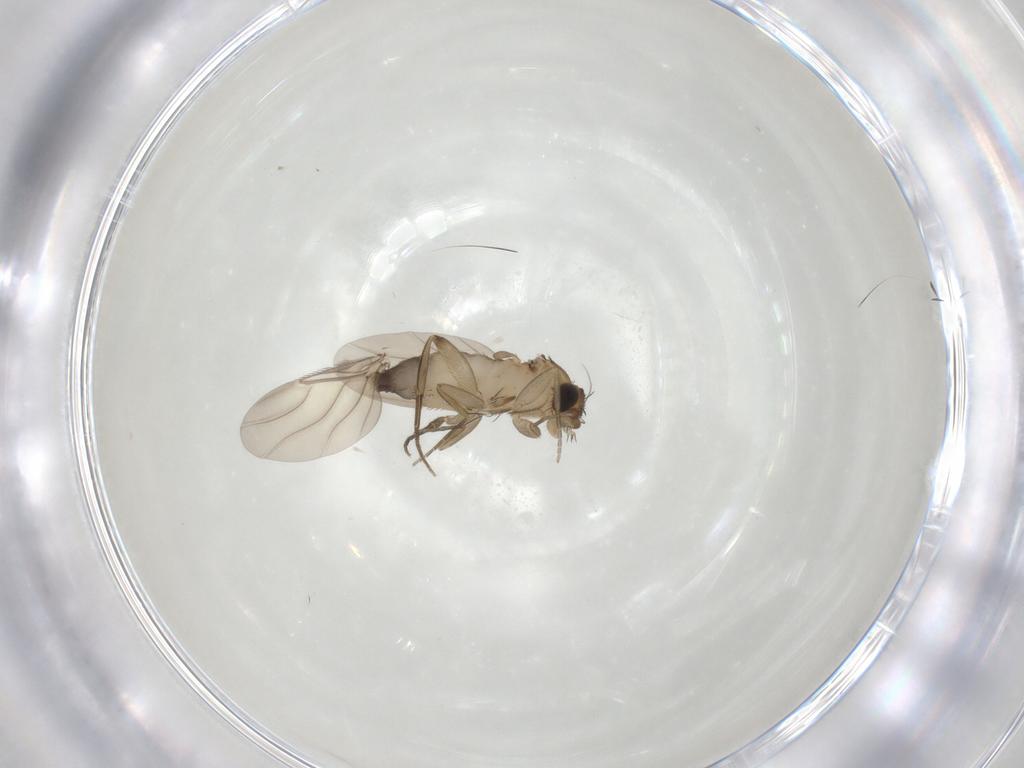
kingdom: Animalia
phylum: Arthropoda
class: Insecta
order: Diptera
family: Phoridae
